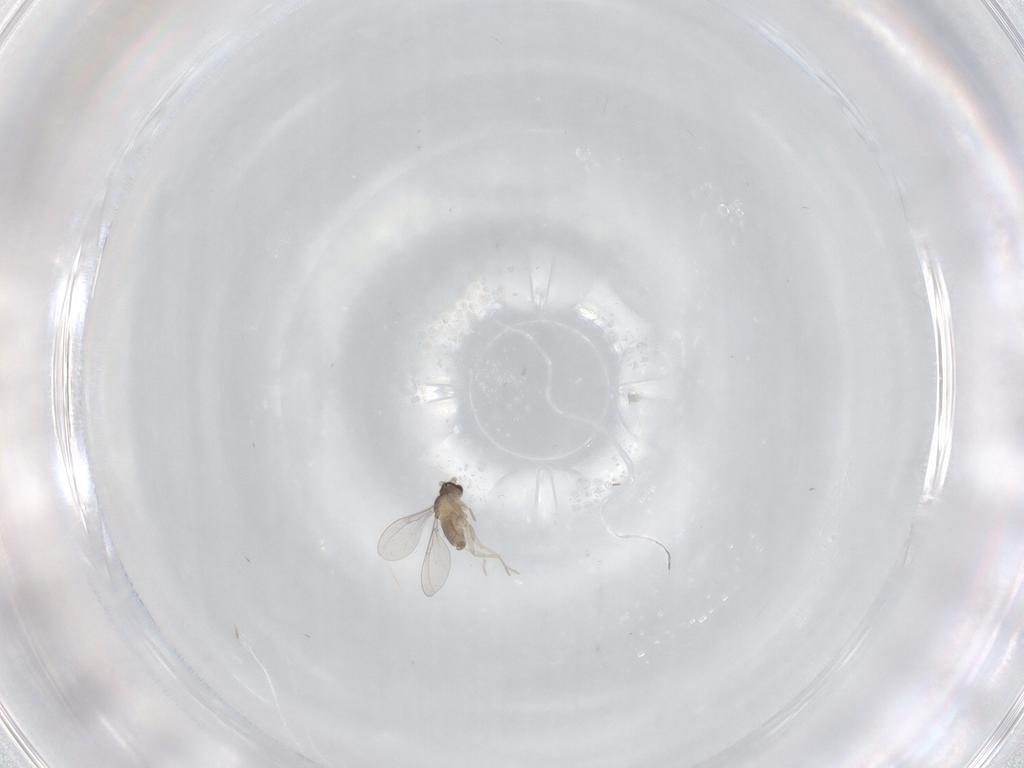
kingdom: Animalia
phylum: Arthropoda
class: Insecta
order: Diptera
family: Cecidomyiidae
